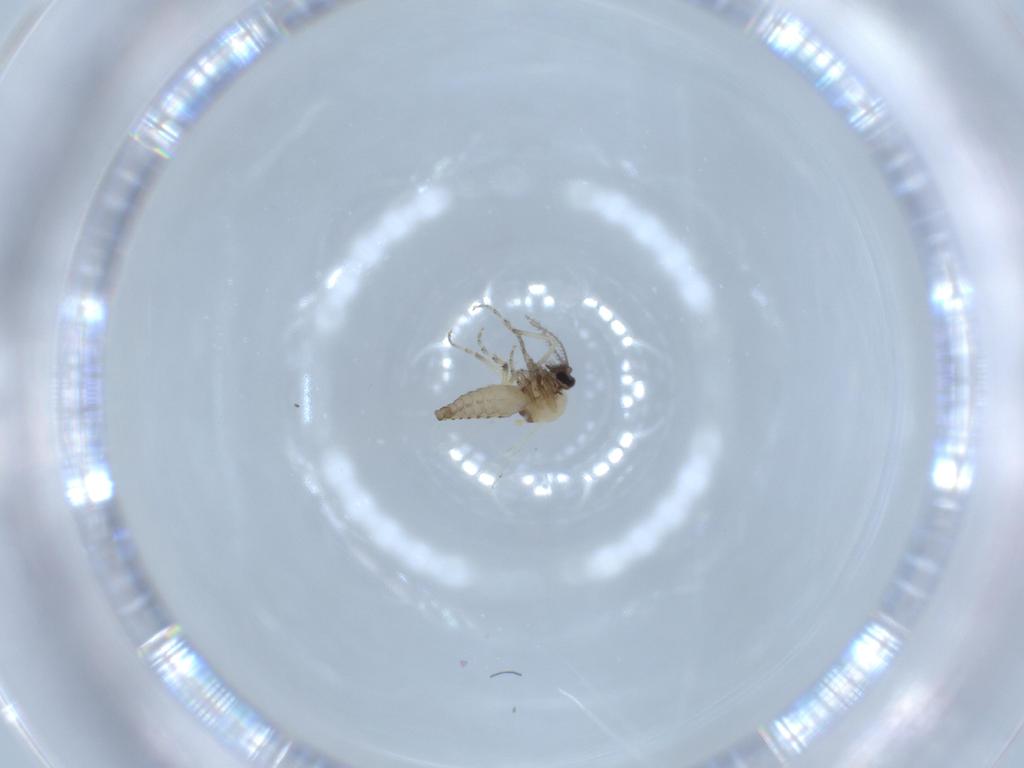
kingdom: Animalia
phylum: Arthropoda
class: Insecta
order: Diptera
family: Ceratopogonidae
